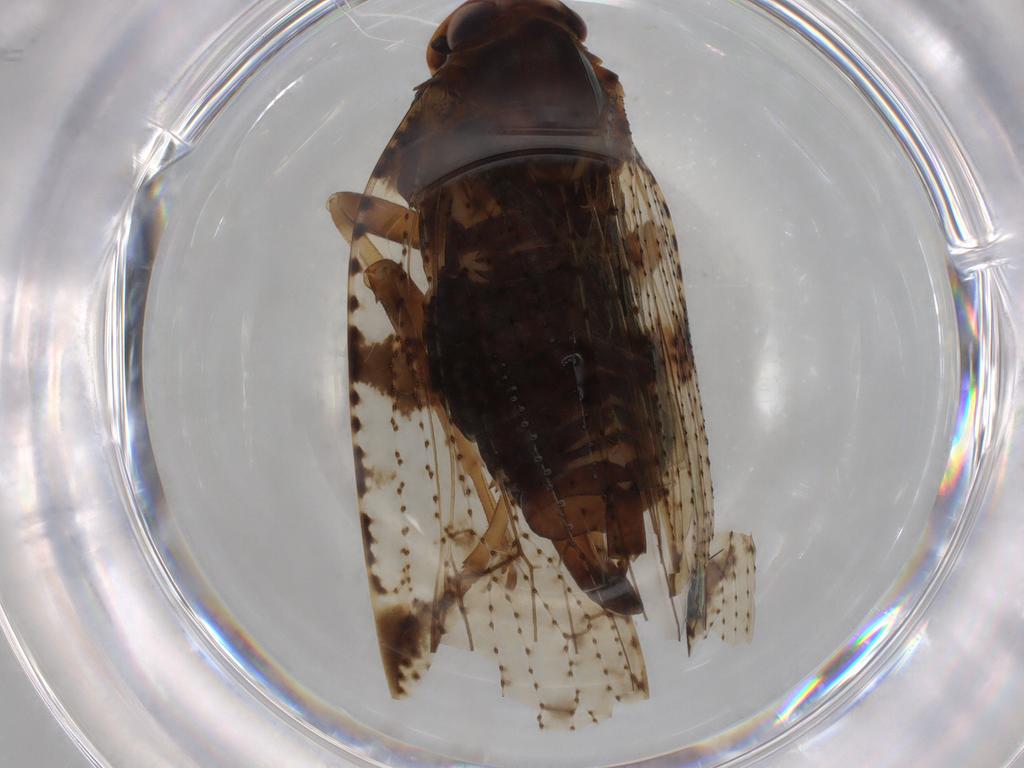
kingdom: Animalia
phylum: Arthropoda
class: Insecta
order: Hemiptera
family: Cixiidae
